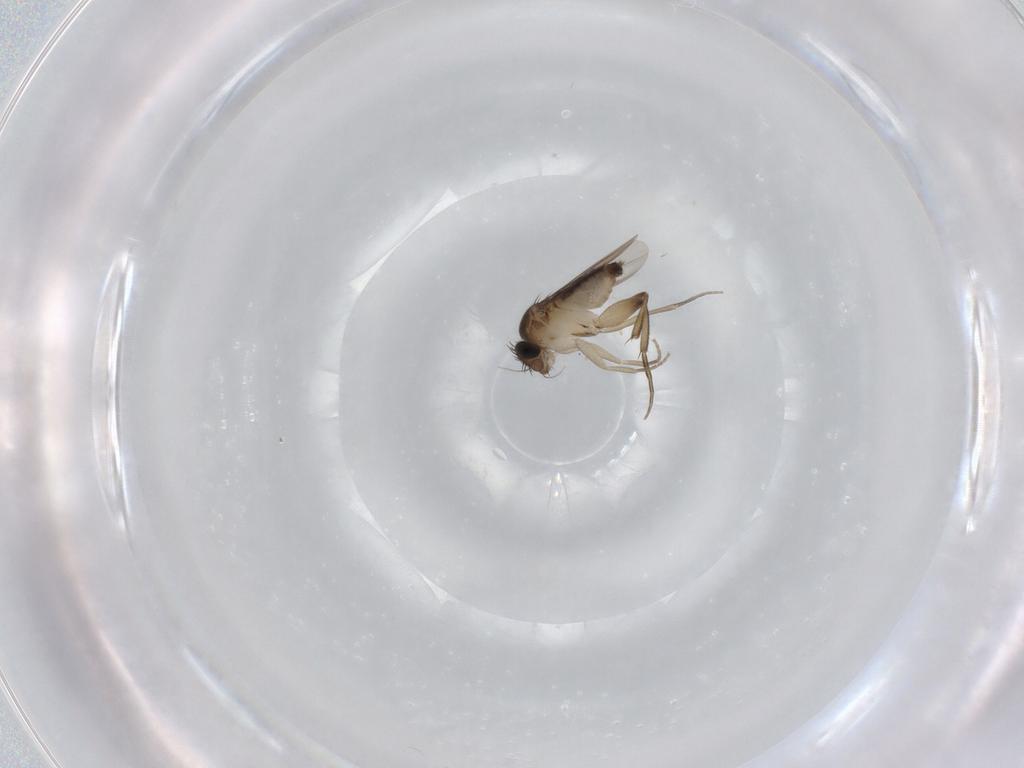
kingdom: Animalia
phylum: Arthropoda
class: Insecta
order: Diptera
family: Phoridae
